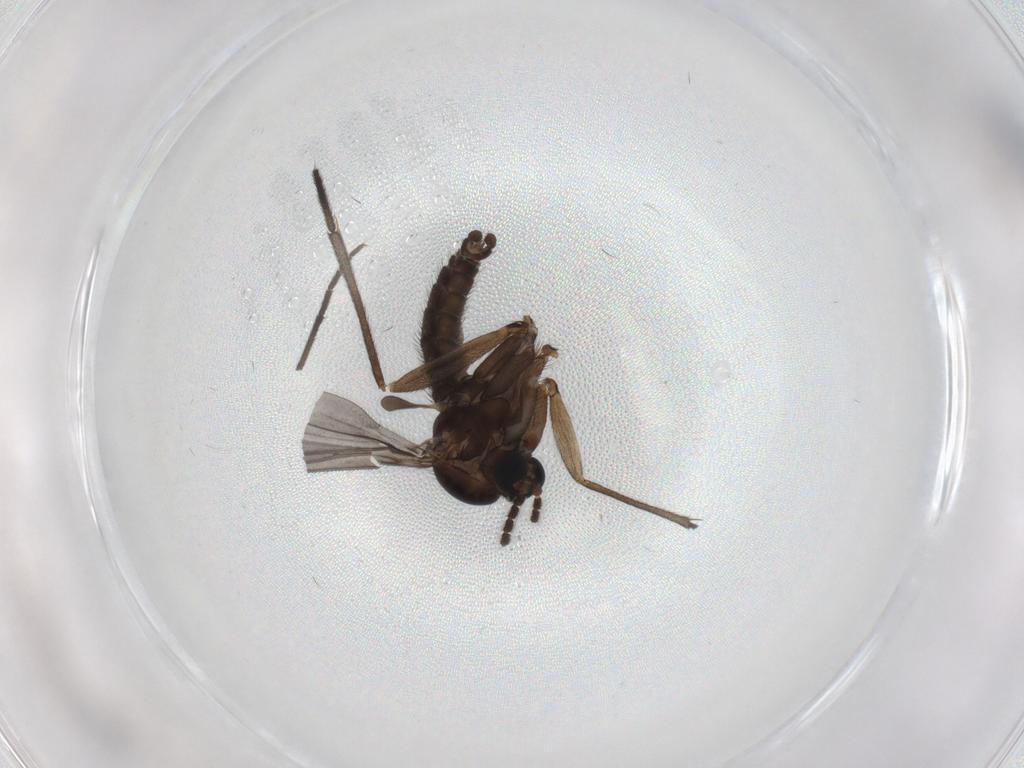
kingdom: Animalia
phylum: Arthropoda
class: Insecta
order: Diptera
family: Sciaridae
